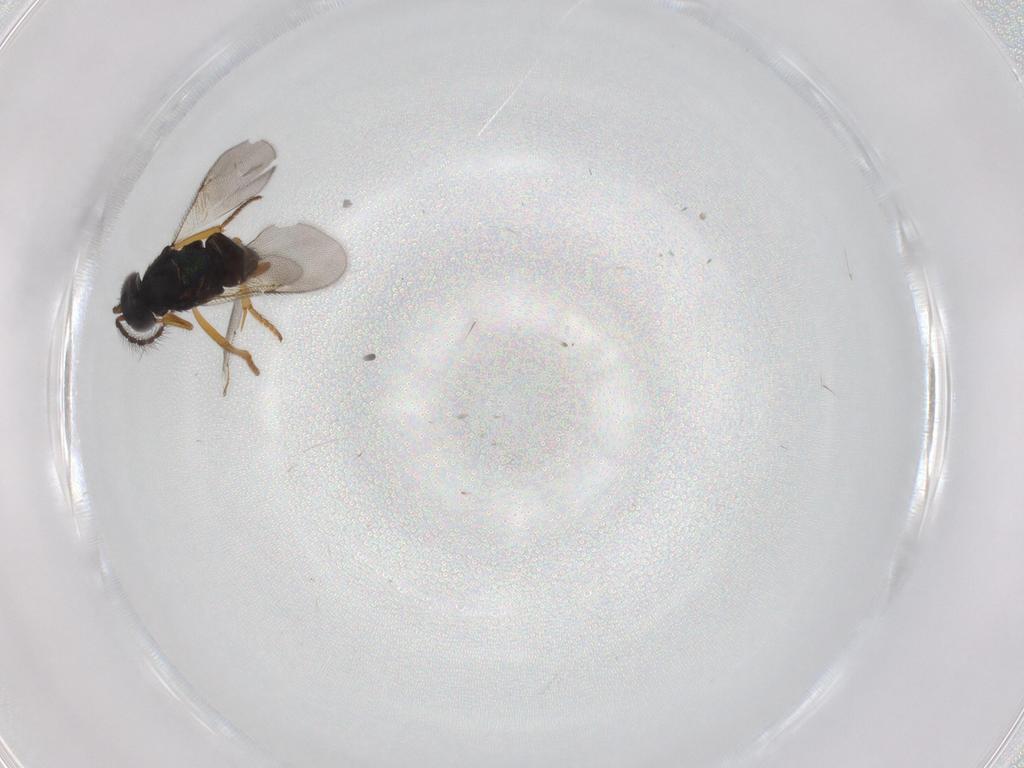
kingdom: Animalia
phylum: Arthropoda
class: Insecta
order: Hymenoptera
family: Encyrtidae
